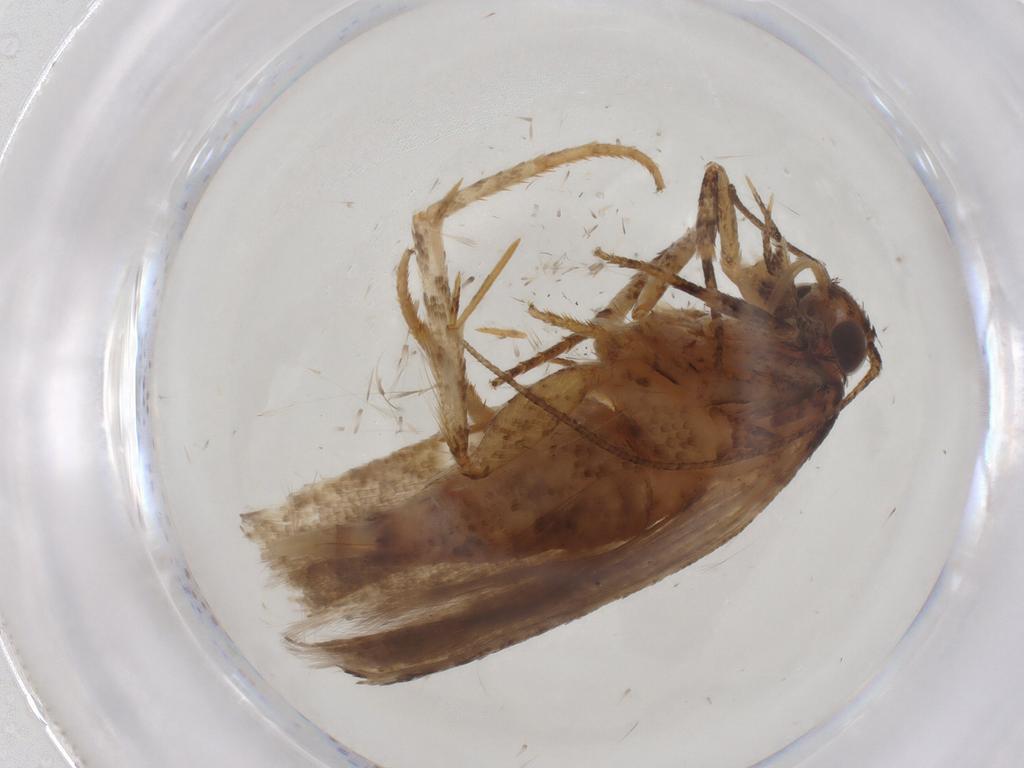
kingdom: Animalia
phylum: Arthropoda
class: Insecta
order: Lepidoptera
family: Gelechiidae
